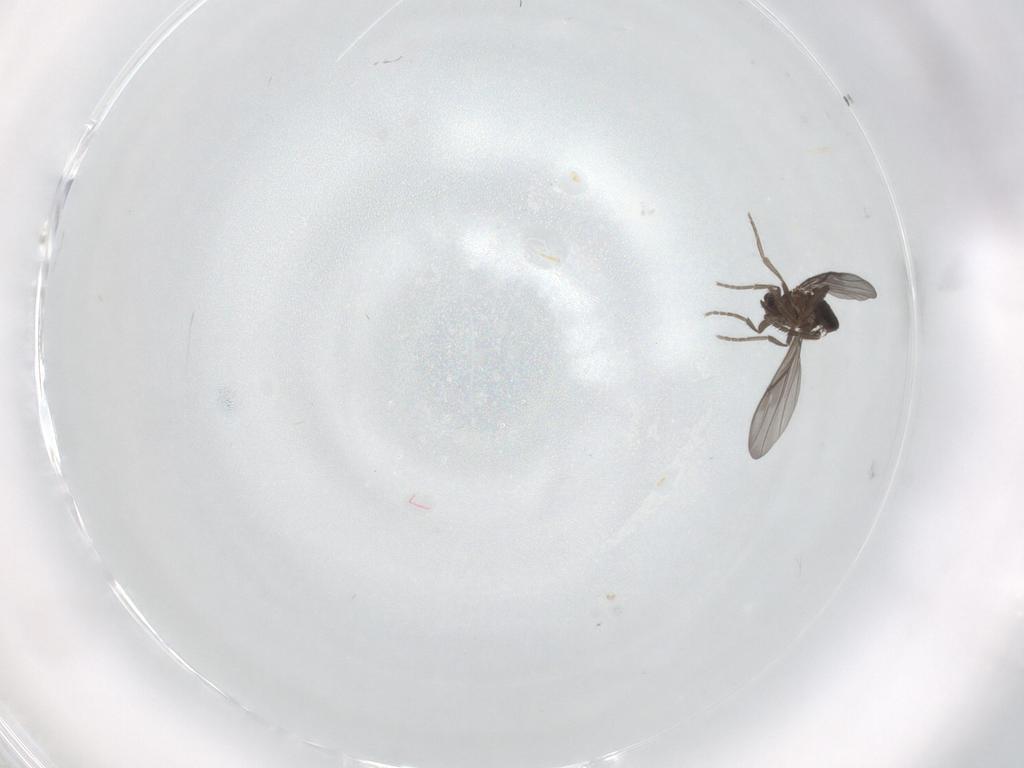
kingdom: Animalia
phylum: Arthropoda
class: Insecta
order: Diptera
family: Phoridae
